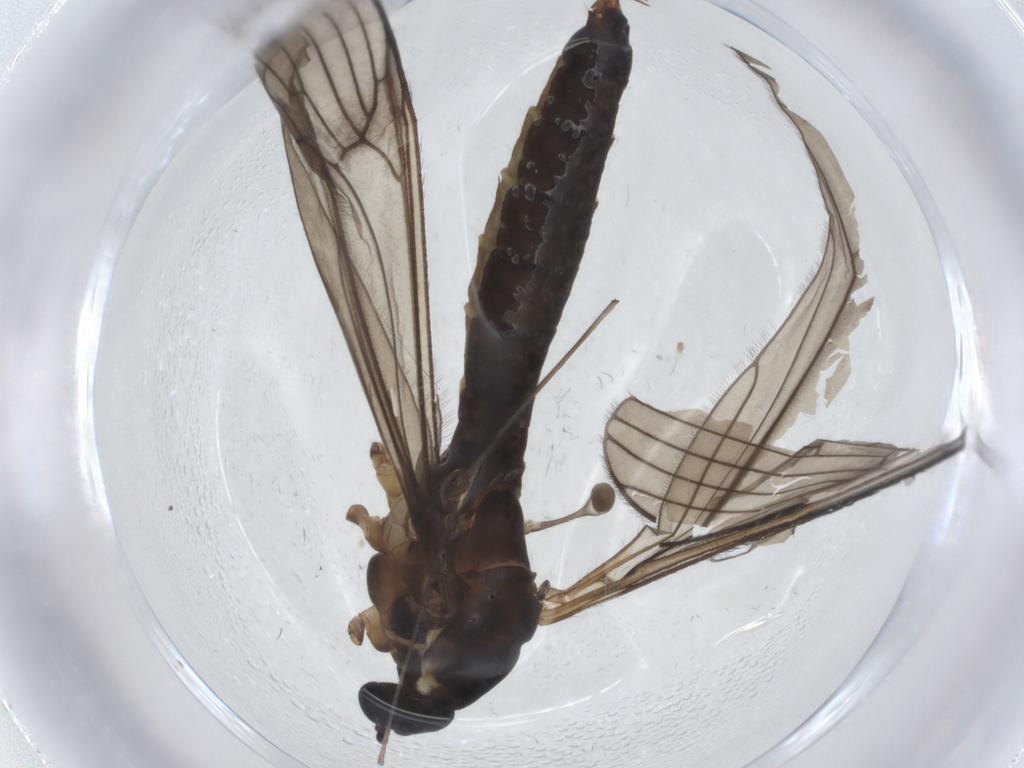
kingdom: Animalia
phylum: Arthropoda
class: Insecta
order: Diptera
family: Limoniidae
